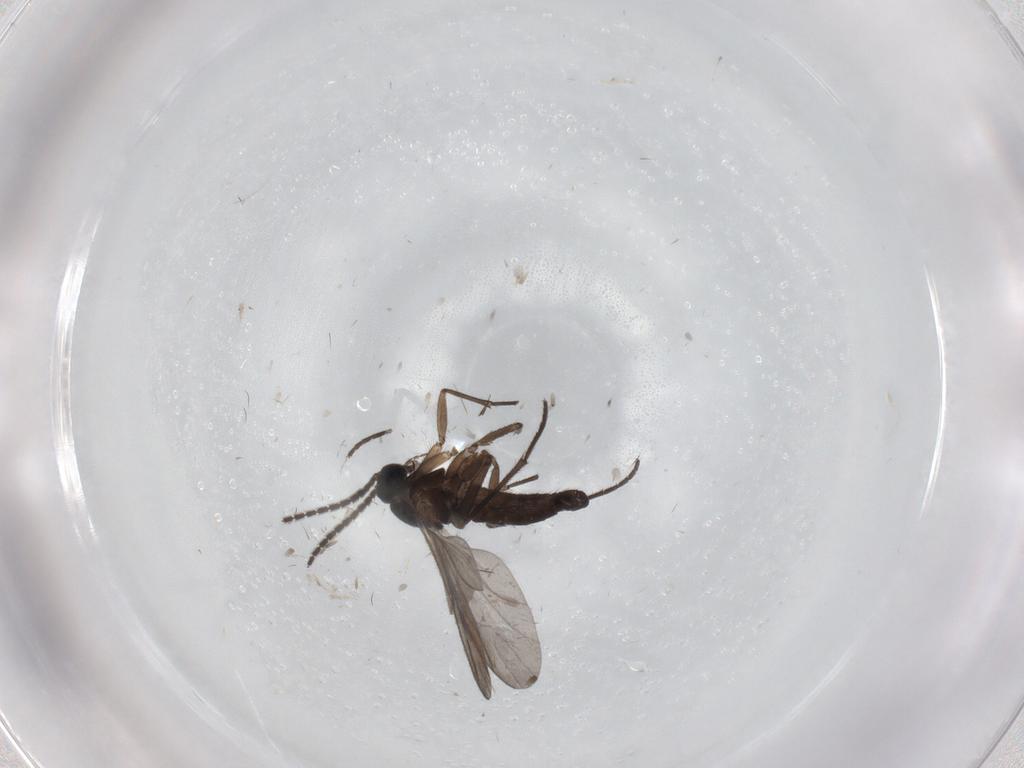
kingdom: Animalia
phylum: Arthropoda
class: Insecta
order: Diptera
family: Sciaridae
